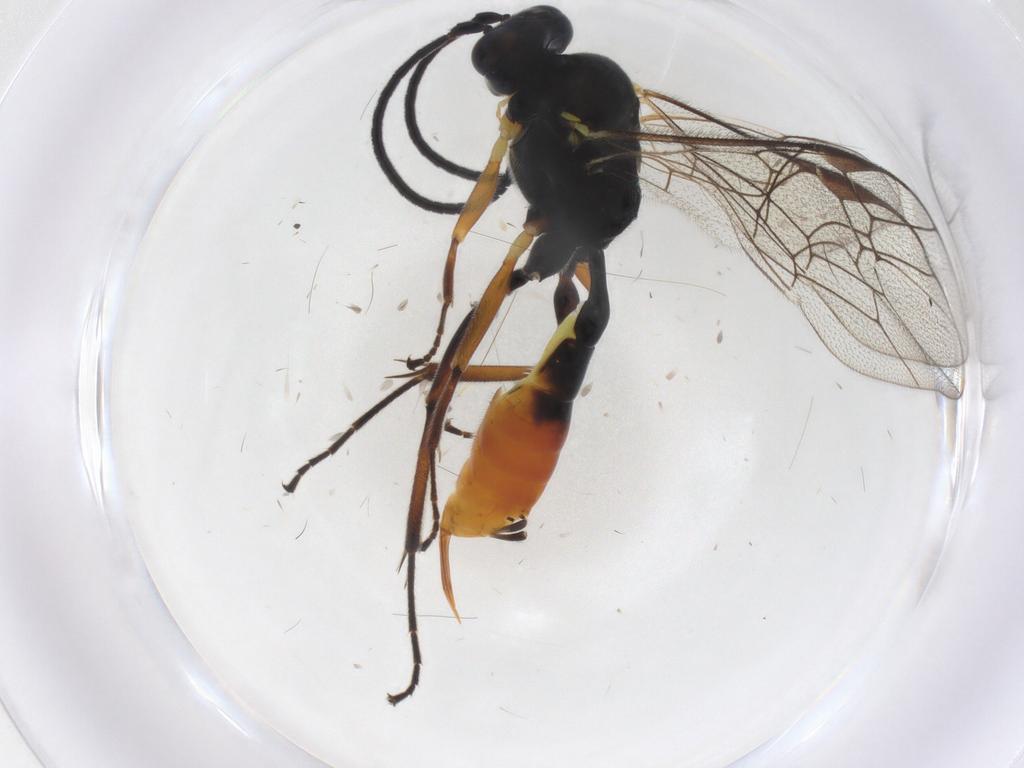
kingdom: Animalia
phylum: Arthropoda
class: Insecta
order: Hymenoptera
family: Ichneumonidae
